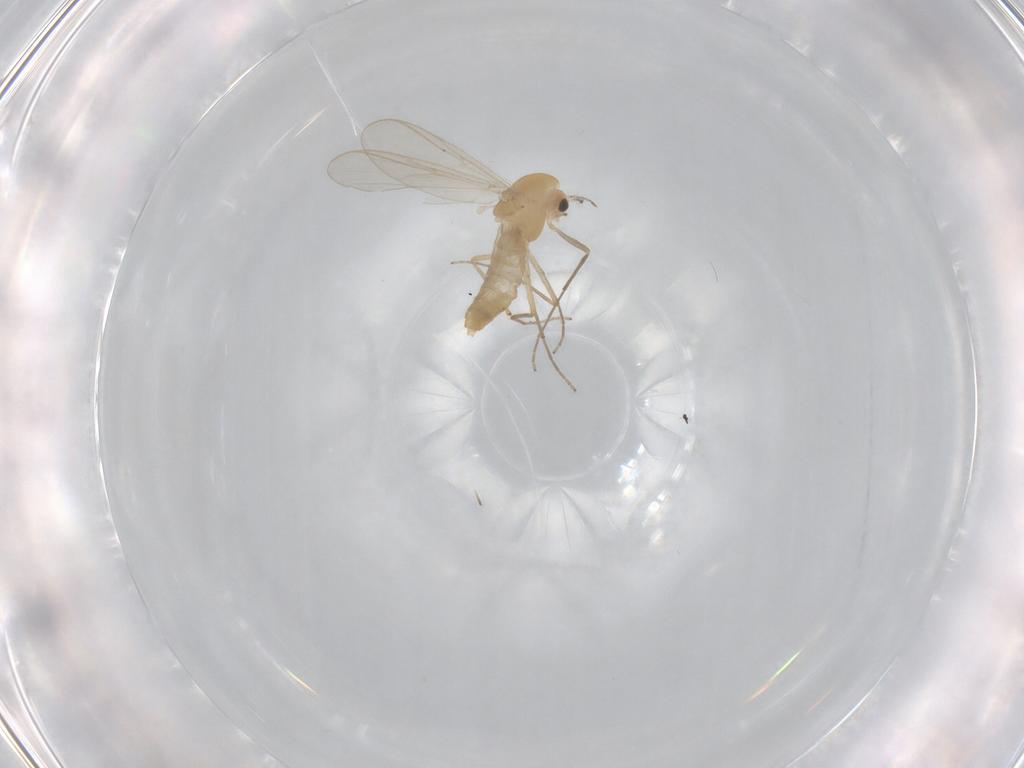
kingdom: Animalia
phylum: Arthropoda
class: Insecta
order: Diptera
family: Chironomidae
